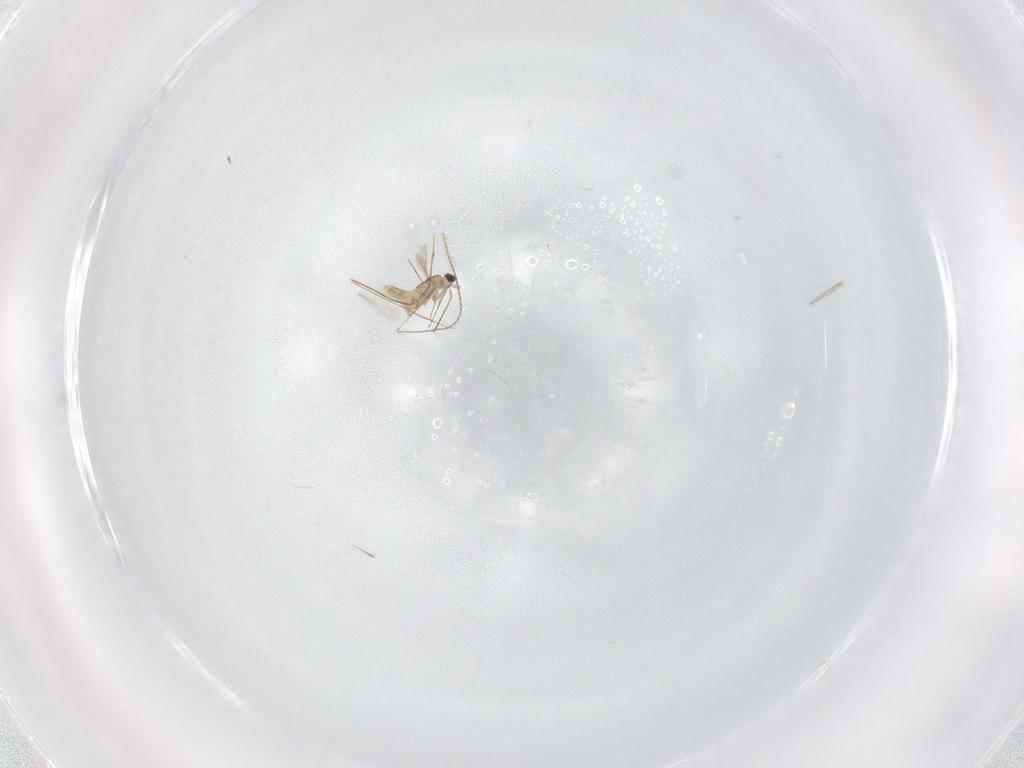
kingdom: Animalia
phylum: Arthropoda
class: Insecta
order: Hymenoptera
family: Mymaridae
